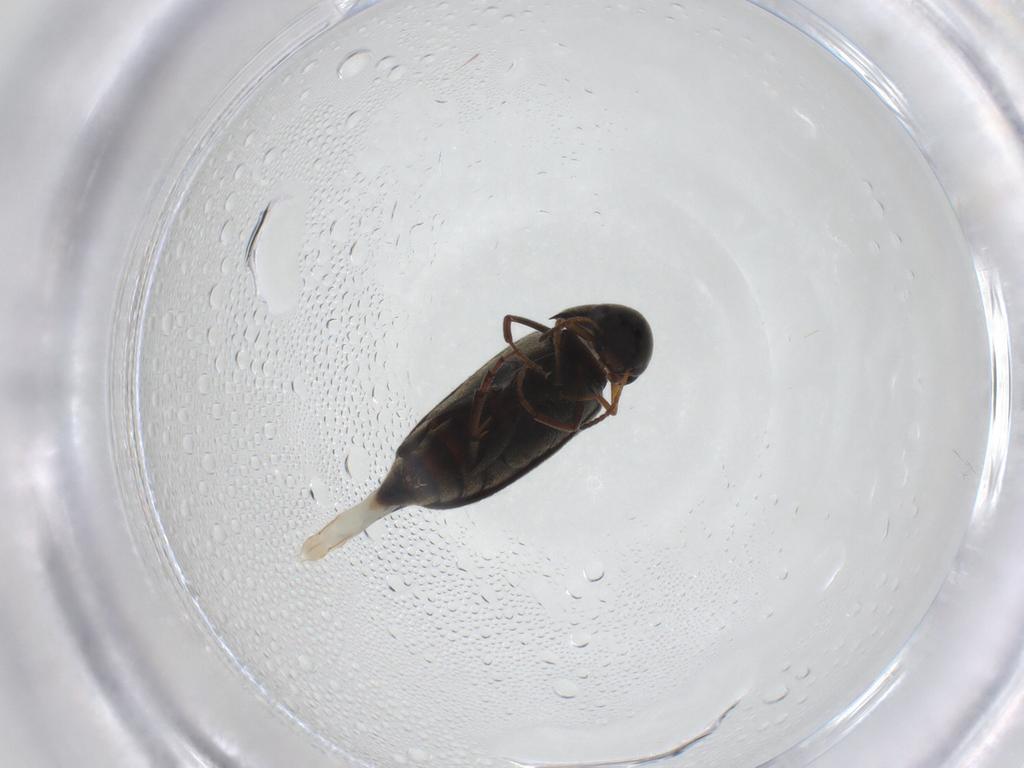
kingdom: Animalia
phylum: Arthropoda
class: Insecta
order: Coleoptera
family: Mordellidae
